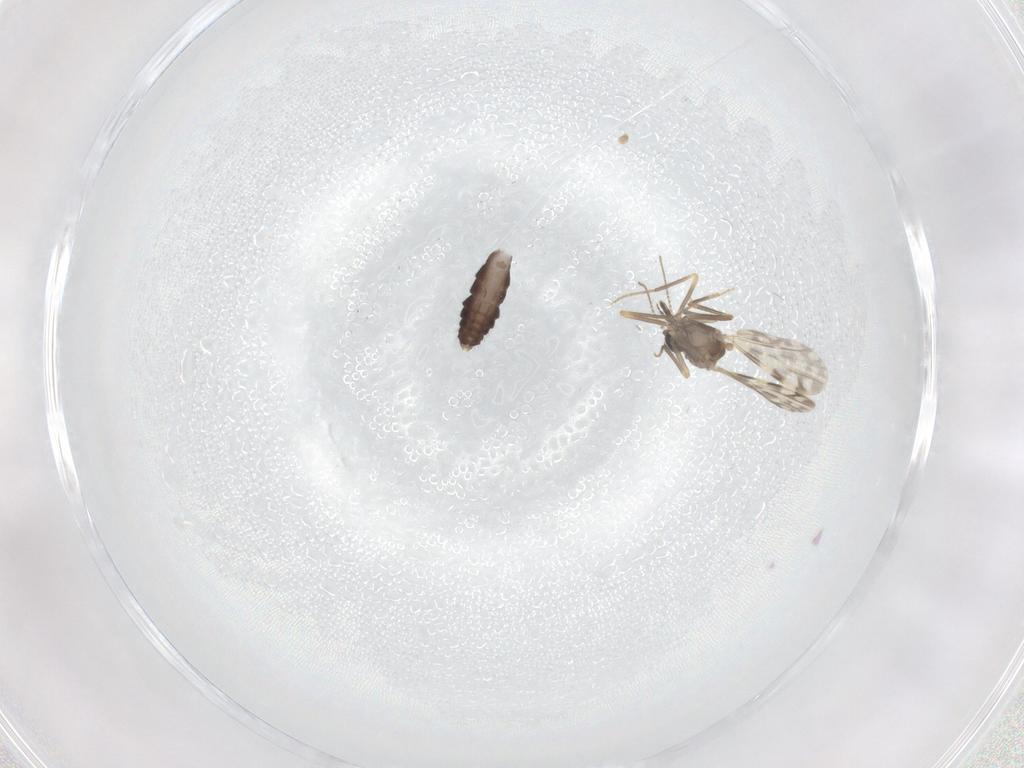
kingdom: Animalia
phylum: Arthropoda
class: Insecta
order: Diptera
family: Ceratopogonidae
